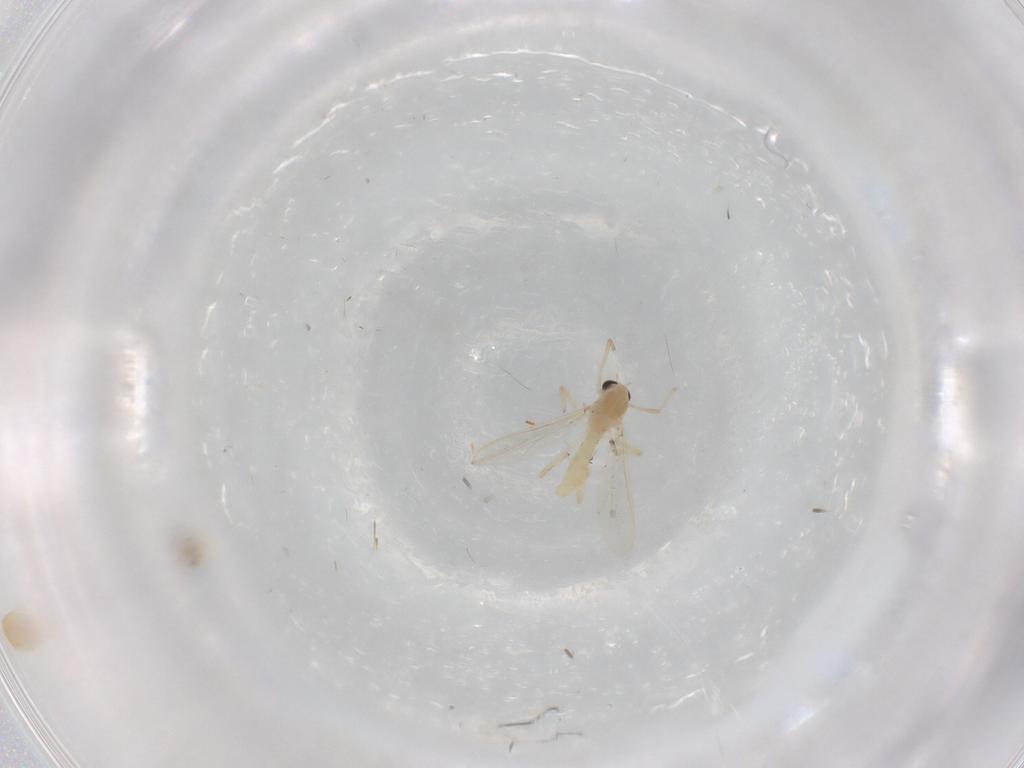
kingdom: Animalia
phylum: Arthropoda
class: Insecta
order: Diptera
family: Chironomidae
